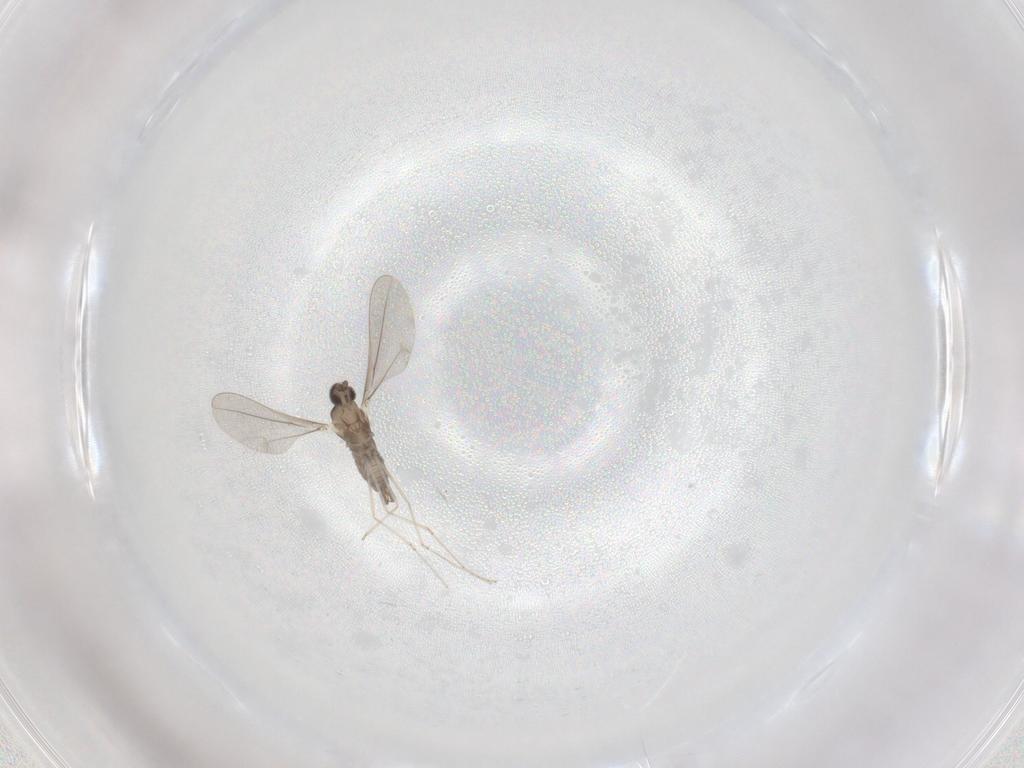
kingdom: Animalia
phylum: Arthropoda
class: Insecta
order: Diptera
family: Cecidomyiidae
